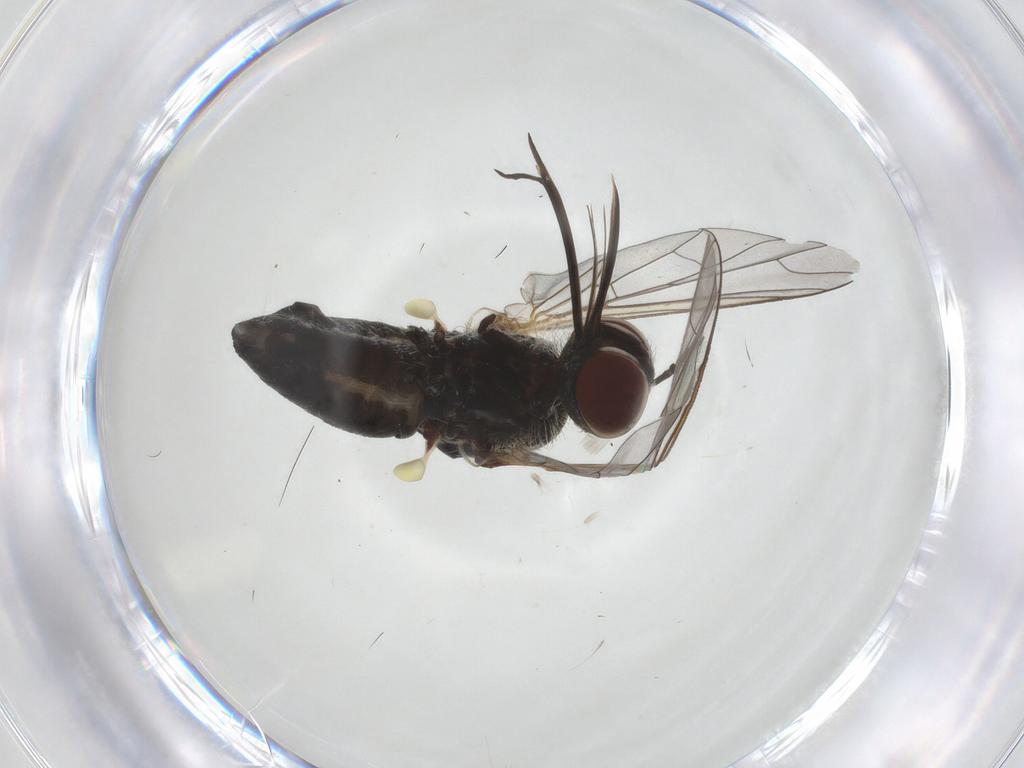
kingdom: Animalia
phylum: Arthropoda
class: Insecta
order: Diptera
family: Bombyliidae
